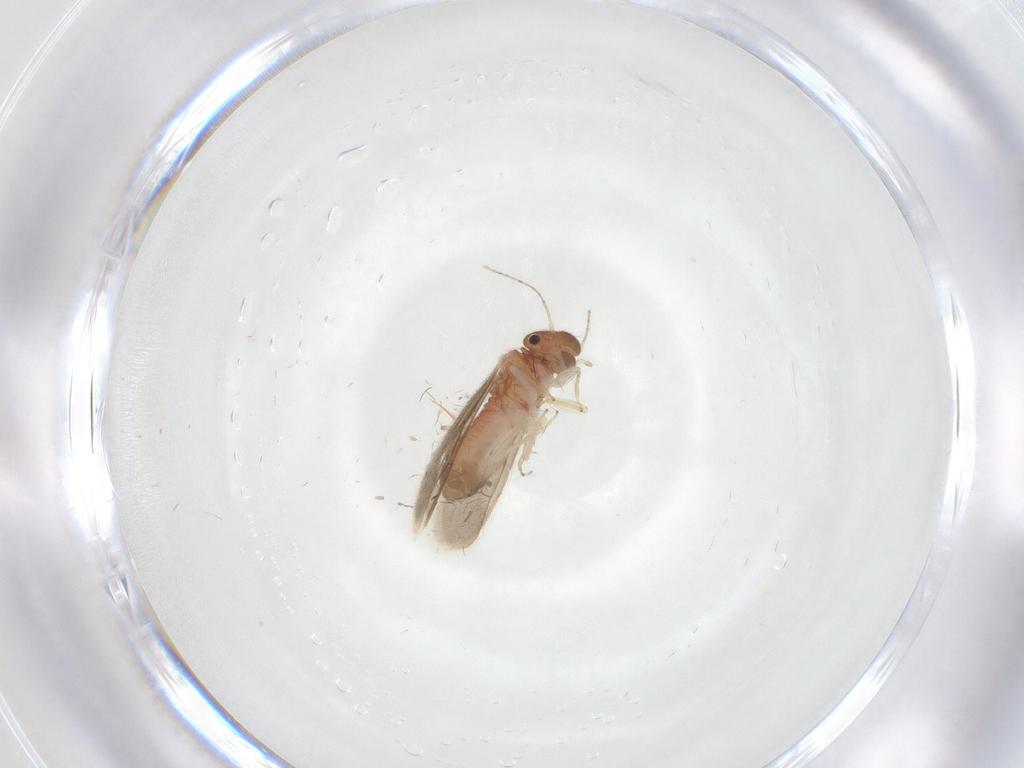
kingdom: Animalia
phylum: Arthropoda
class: Insecta
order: Psocodea
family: Archipsocidae
